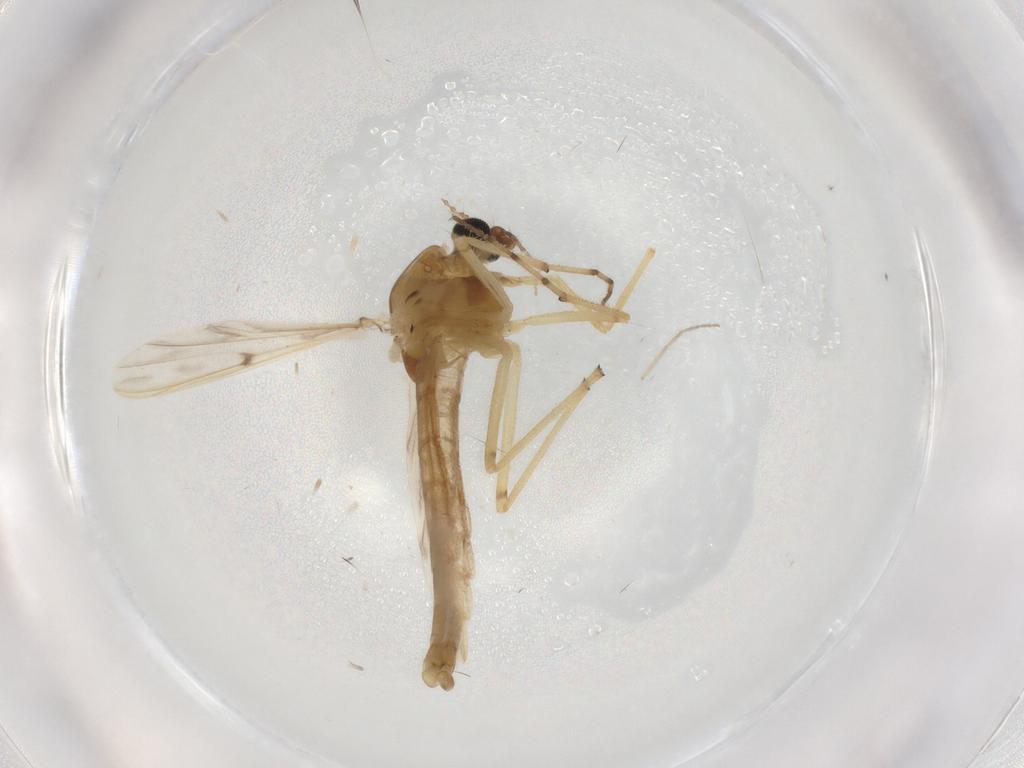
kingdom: Animalia
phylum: Arthropoda
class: Insecta
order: Diptera
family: Chironomidae
